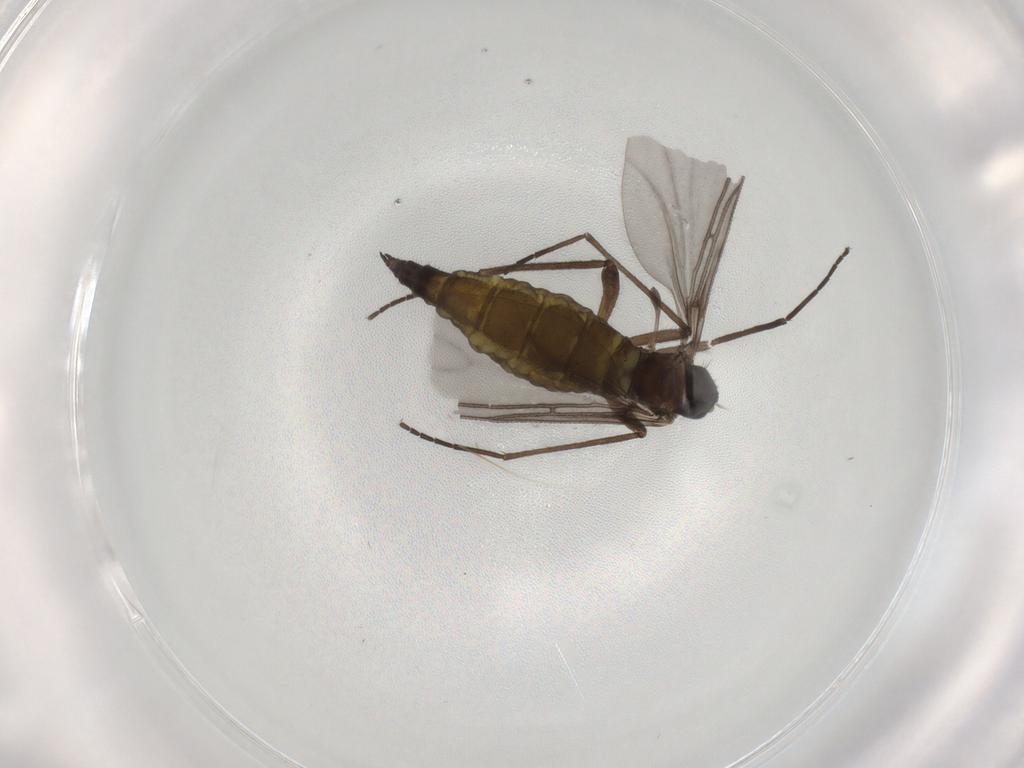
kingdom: Animalia
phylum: Arthropoda
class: Insecta
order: Diptera
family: Sciaridae
